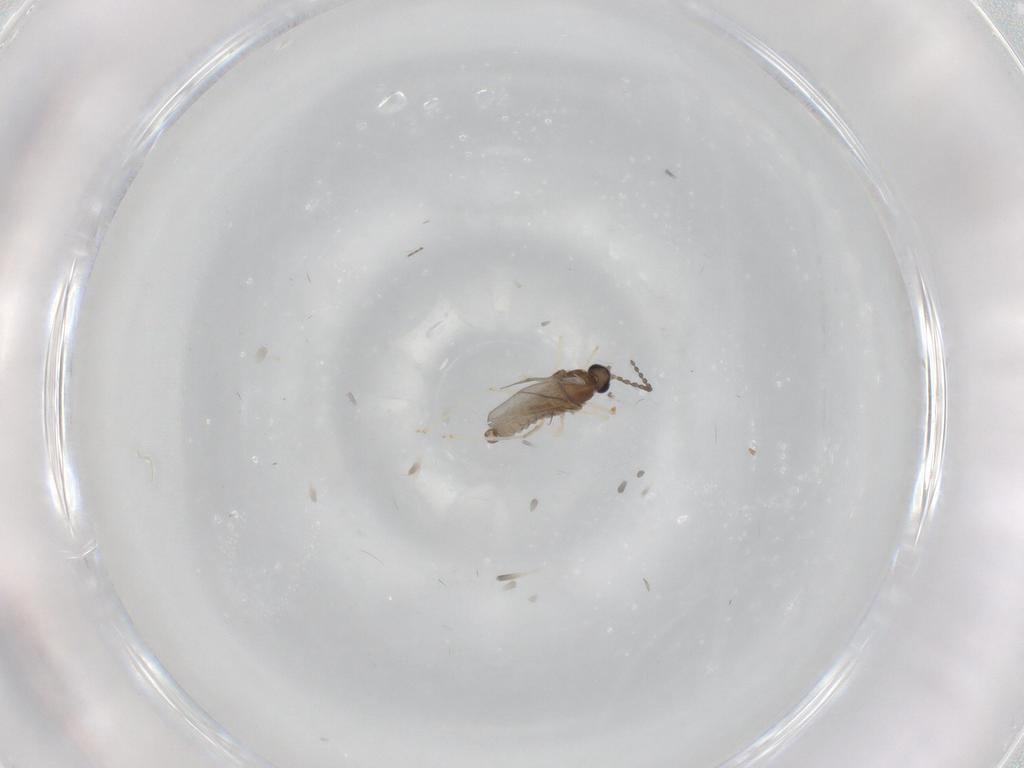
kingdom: Animalia
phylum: Arthropoda
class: Insecta
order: Diptera
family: Cecidomyiidae
